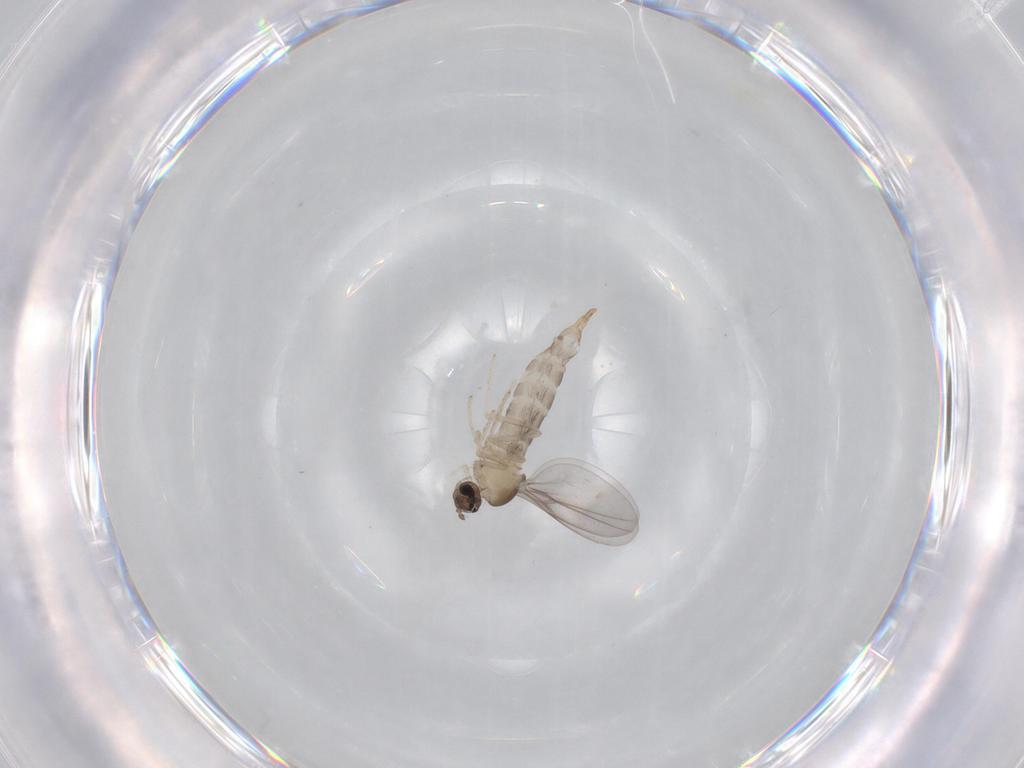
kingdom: Animalia
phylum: Arthropoda
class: Insecta
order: Diptera
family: Cecidomyiidae
